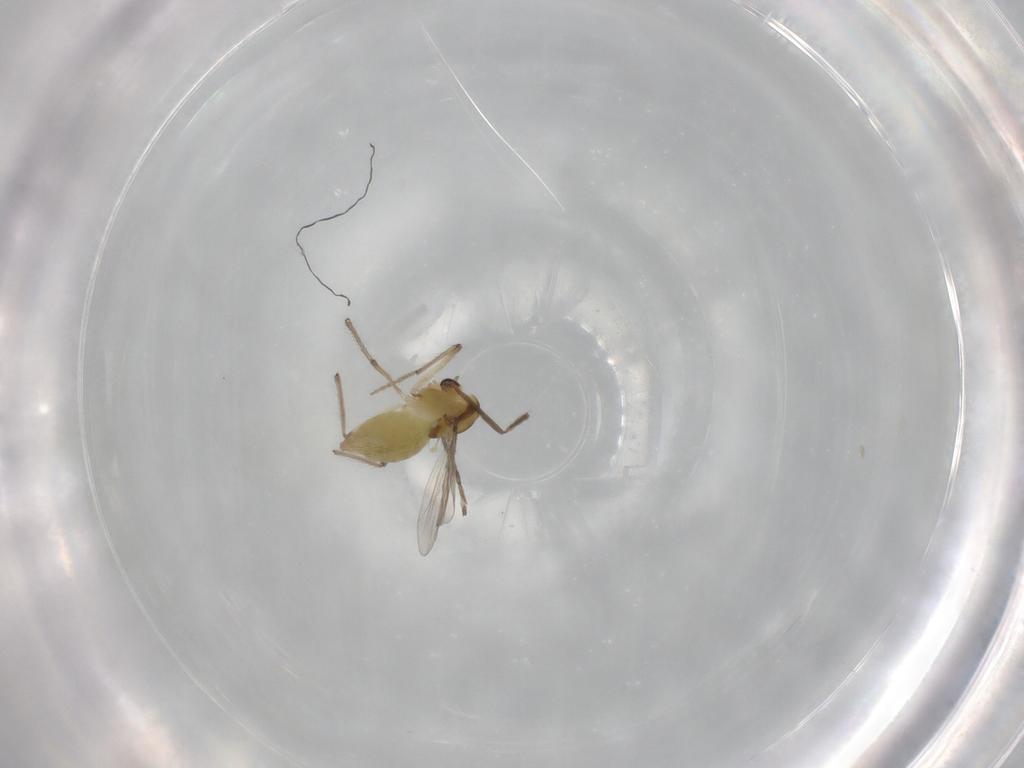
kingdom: Animalia
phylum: Arthropoda
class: Insecta
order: Diptera
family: Chironomidae
